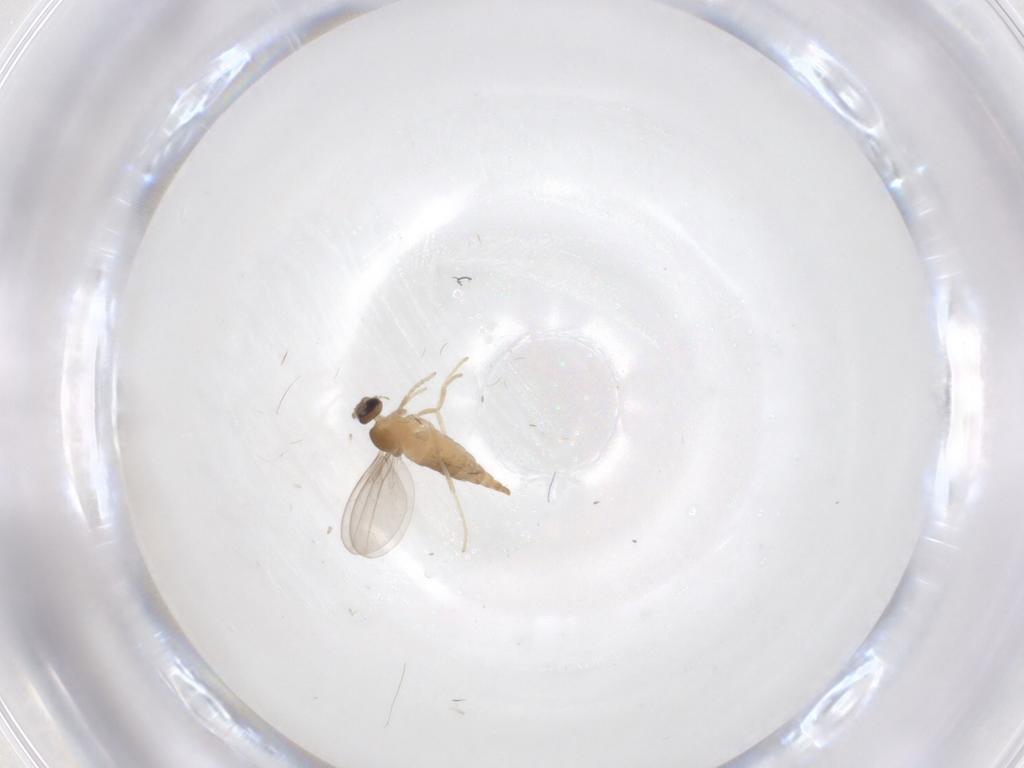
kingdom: Animalia
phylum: Arthropoda
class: Insecta
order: Diptera
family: Cecidomyiidae
